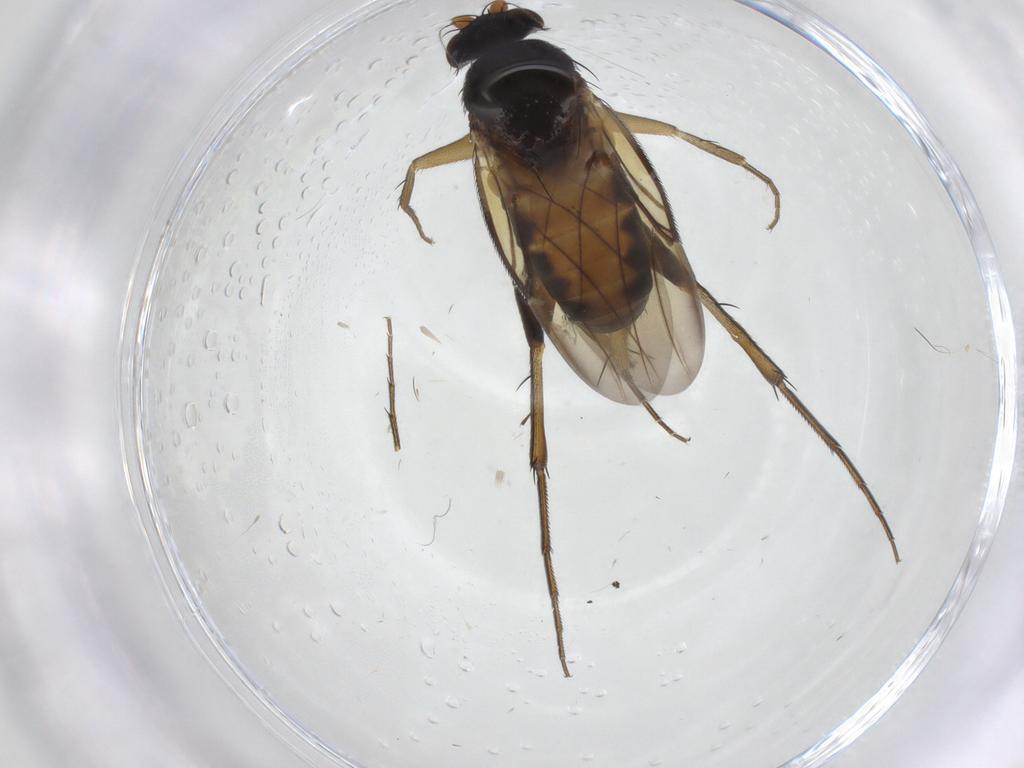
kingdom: Animalia
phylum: Arthropoda
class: Insecta
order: Diptera
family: Phoridae
